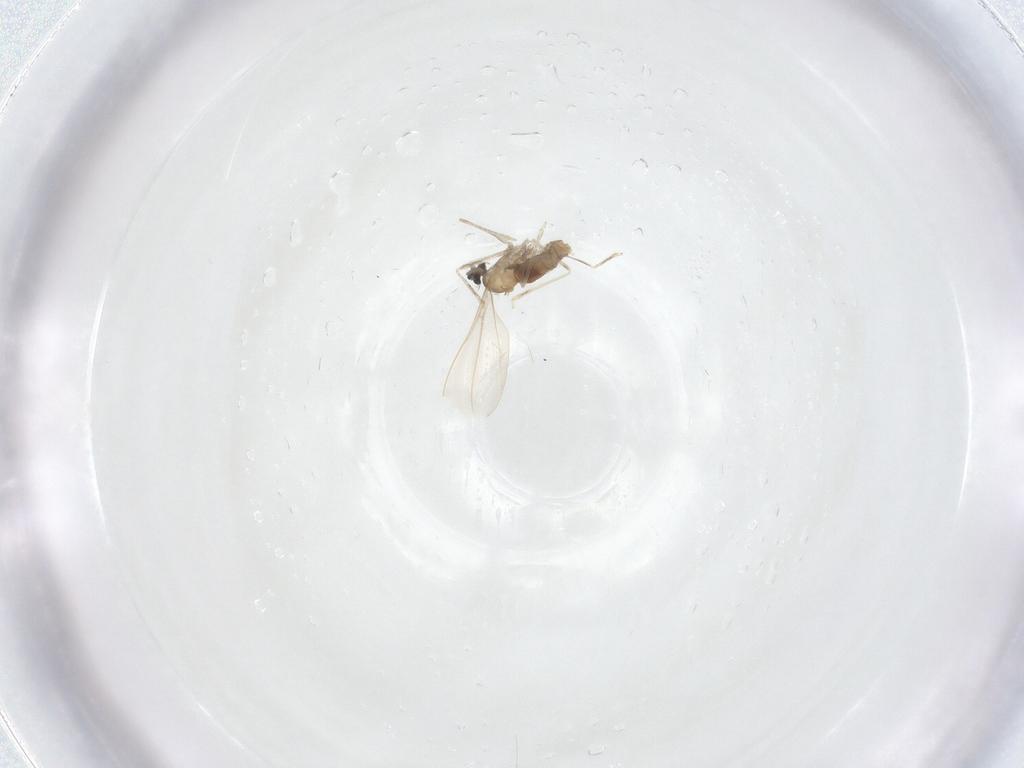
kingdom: Animalia
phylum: Arthropoda
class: Insecta
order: Diptera
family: Cecidomyiidae
